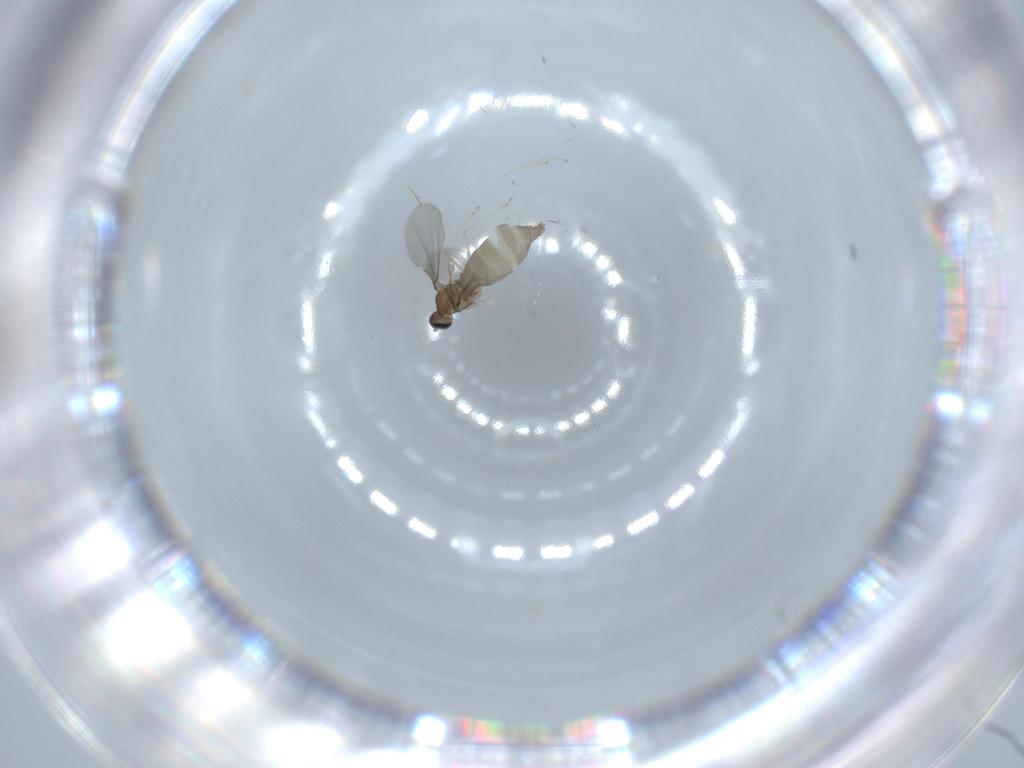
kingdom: Animalia
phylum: Arthropoda
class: Insecta
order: Diptera
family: Cecidomyiidae
